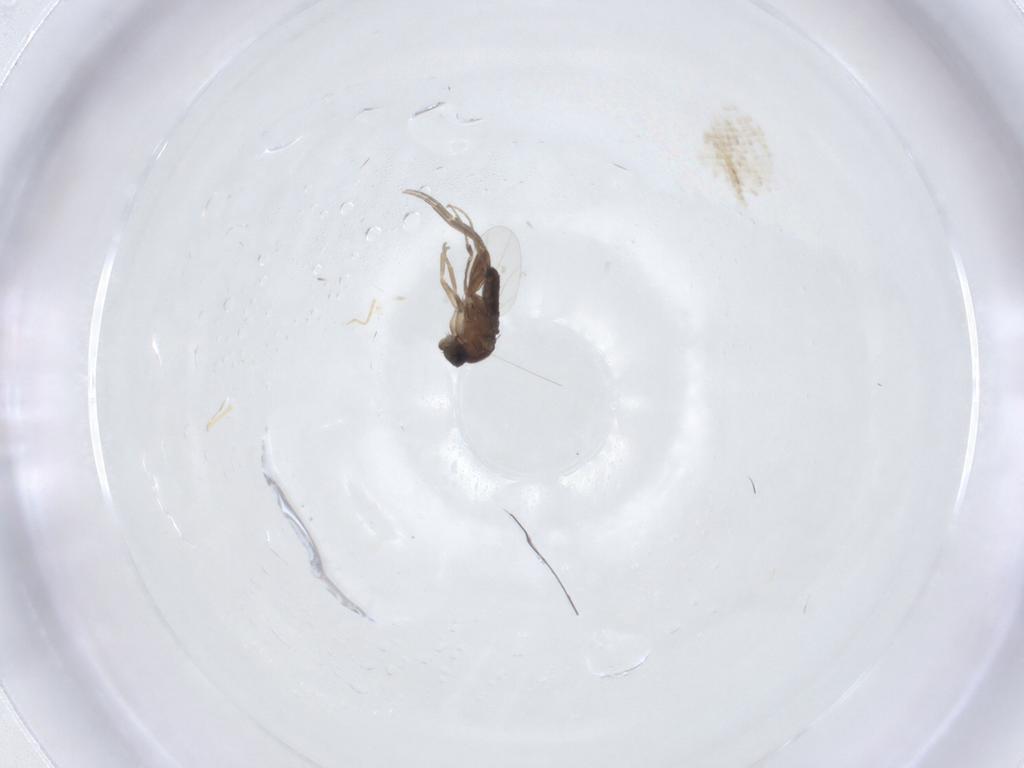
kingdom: Animalia
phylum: Arthropoda
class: Insecta
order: Diptera
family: Phoridae
